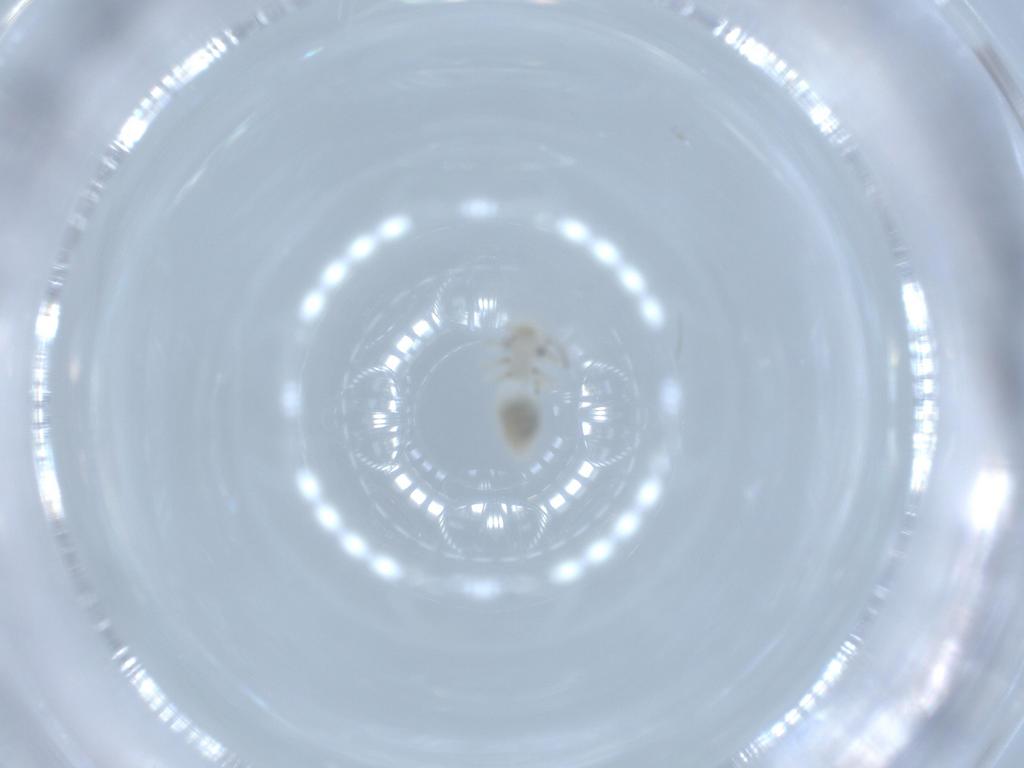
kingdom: Animalia
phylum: Arthropoda
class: Insecta
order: Psocodea
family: Caeciliusidae
